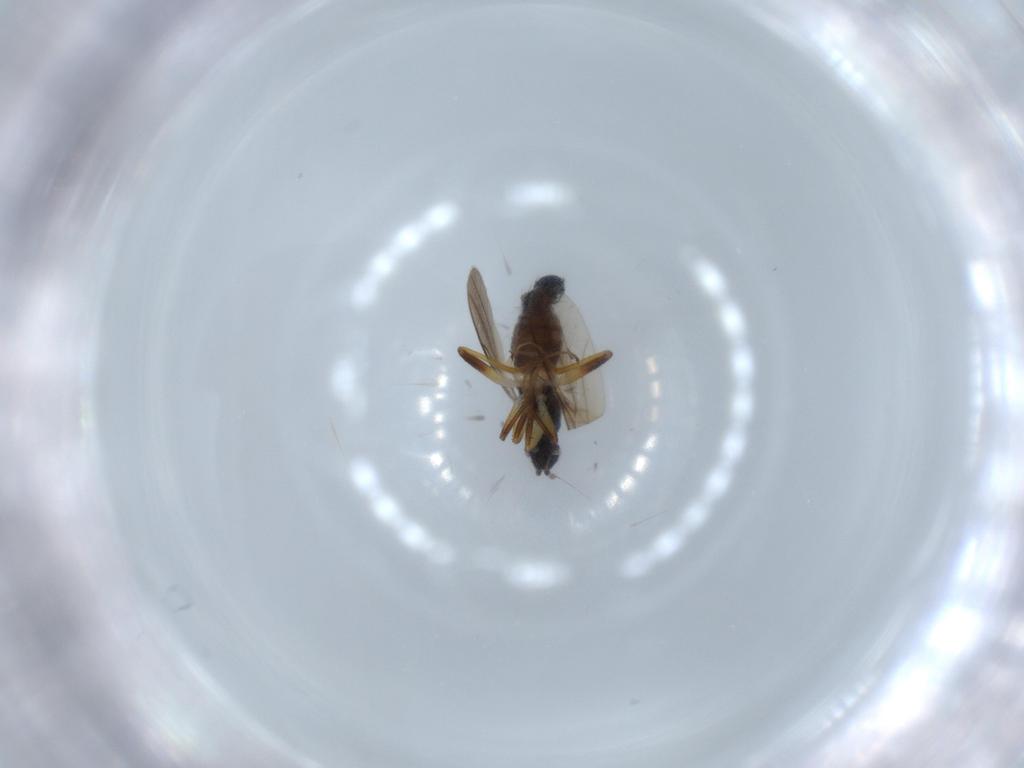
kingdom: Animalia
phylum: Arthropoda
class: Insecta
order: Diptera
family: Hybotidae
